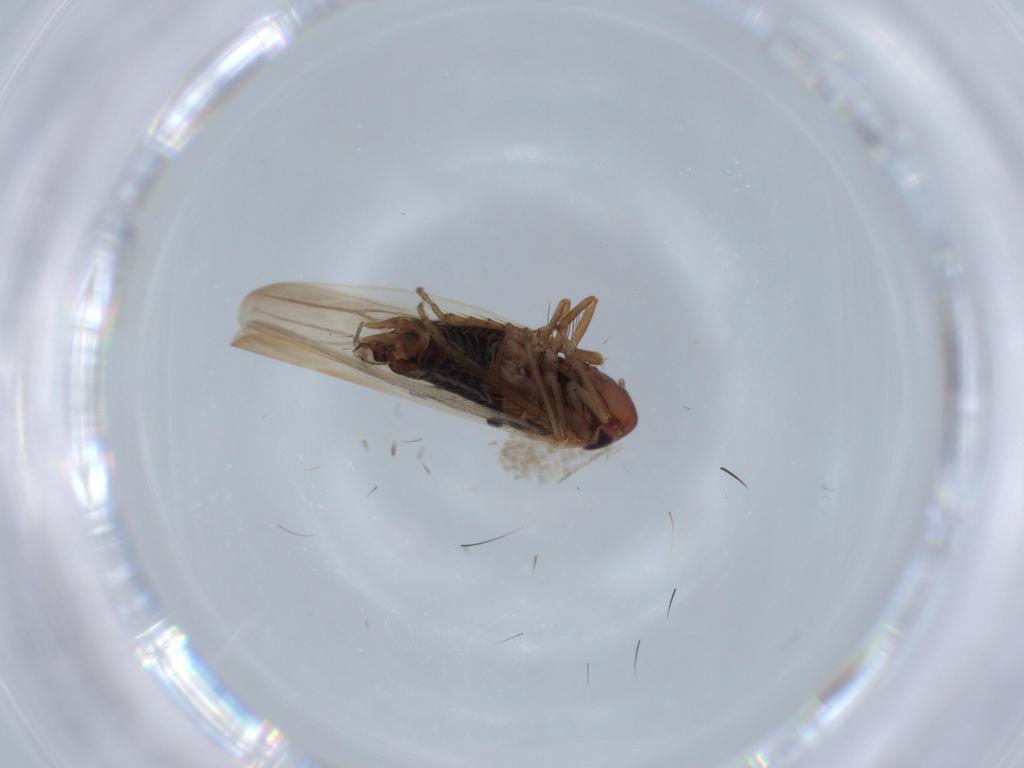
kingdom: Animalia
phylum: Arthropoda
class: Insecta
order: Hemiptera
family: Cicadellidae
